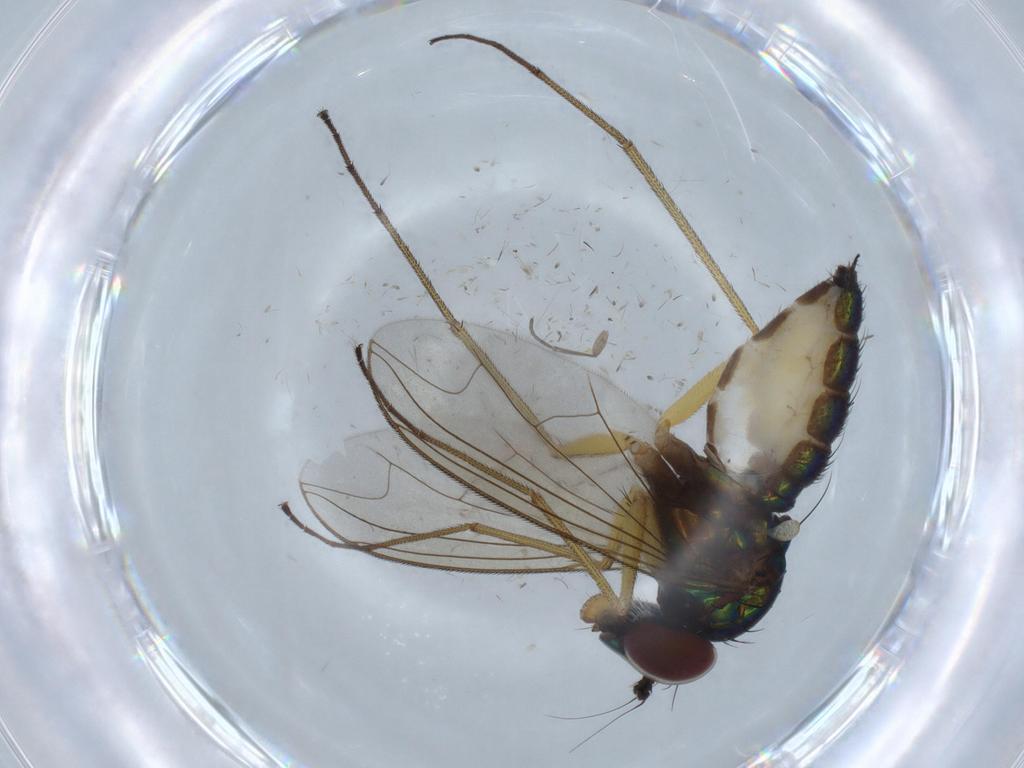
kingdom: Animalia
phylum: Arthropoda
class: Insecta
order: Diptera
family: Dolichopodidae
